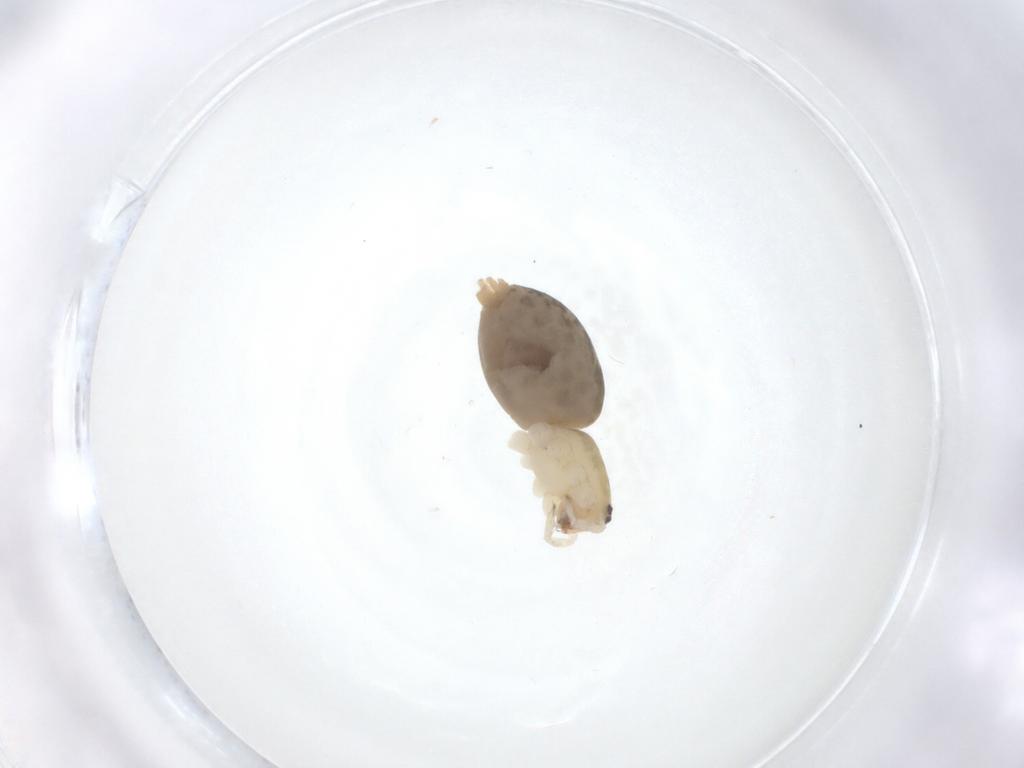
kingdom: Animalia
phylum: Arthropoda
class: Arachnida
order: Araneae
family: Anyphaenidae
